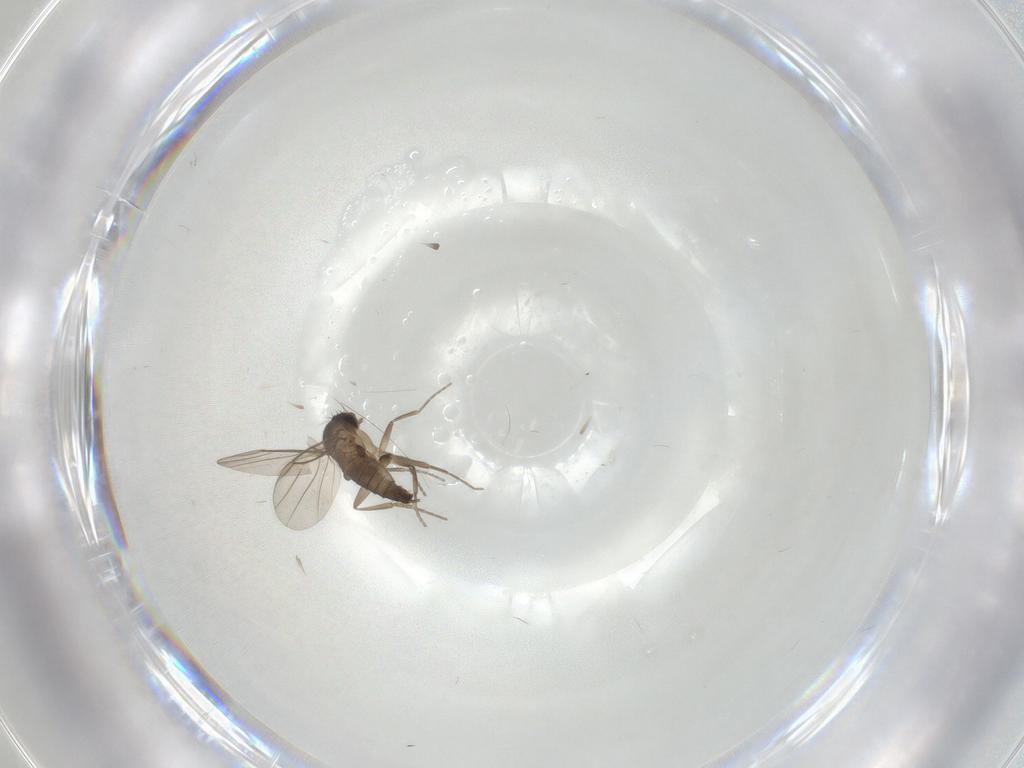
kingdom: Animalia
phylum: Arthropoda
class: Insecta
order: Diptera
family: Phoridae
